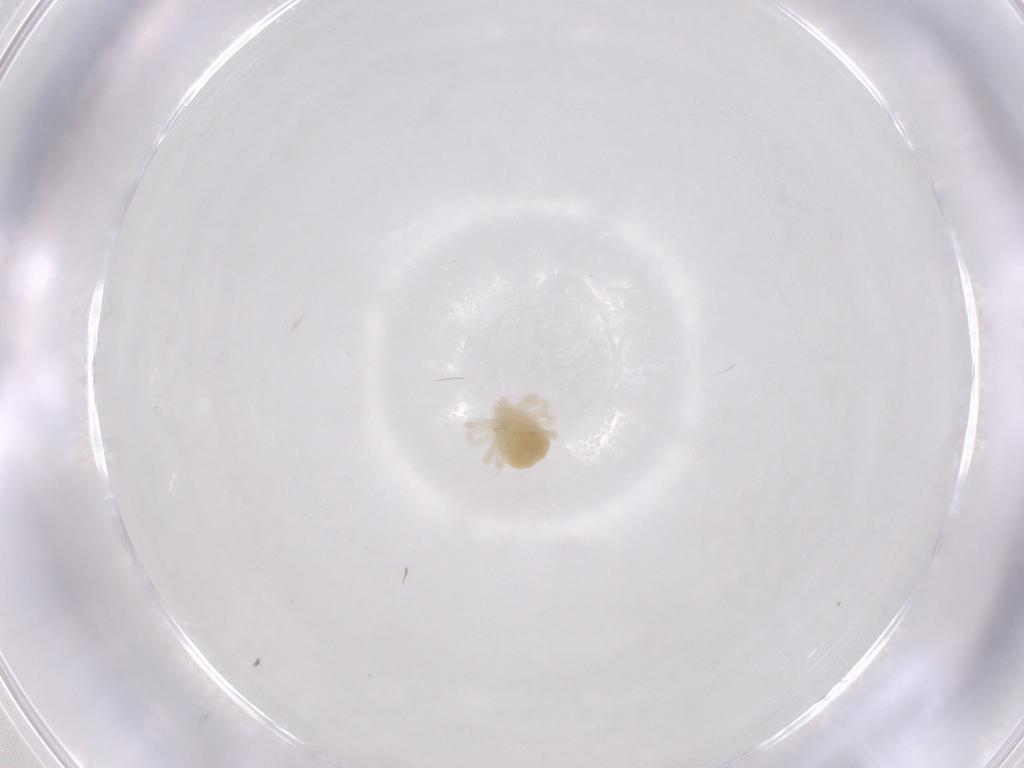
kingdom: Animalia
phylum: Arthropoda
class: Arachnida
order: Trombidiformes
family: Anystidae
